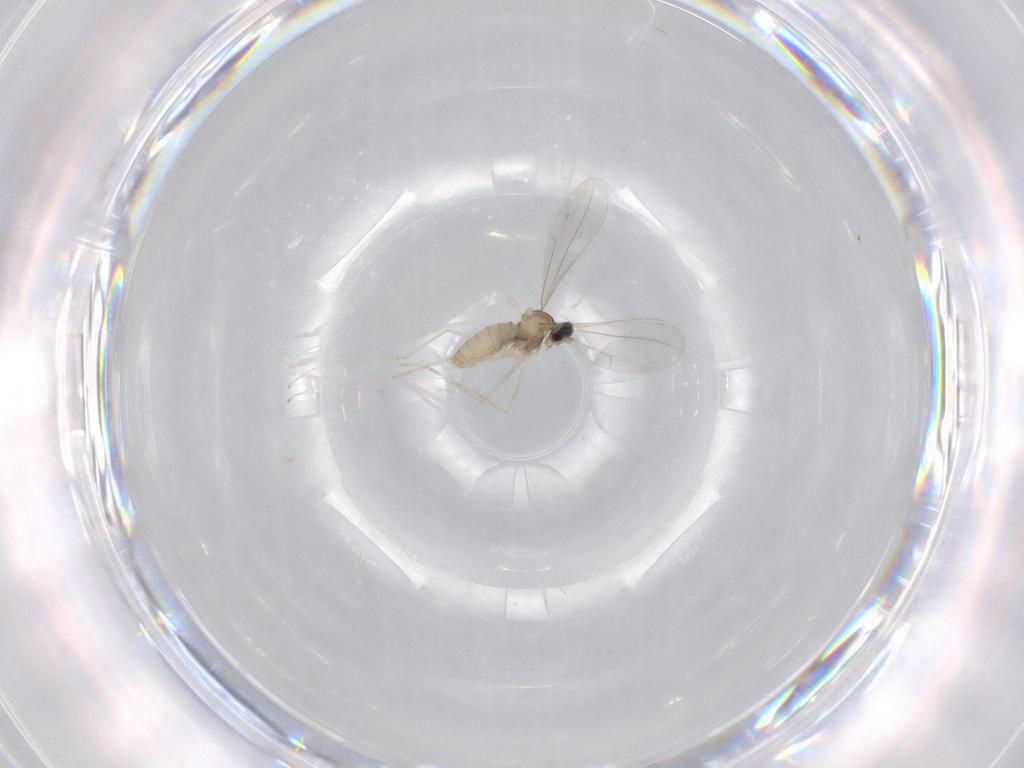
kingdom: Animalia
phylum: Arthropoda
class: Insecta
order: Diptera
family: Cecidomyiidae
